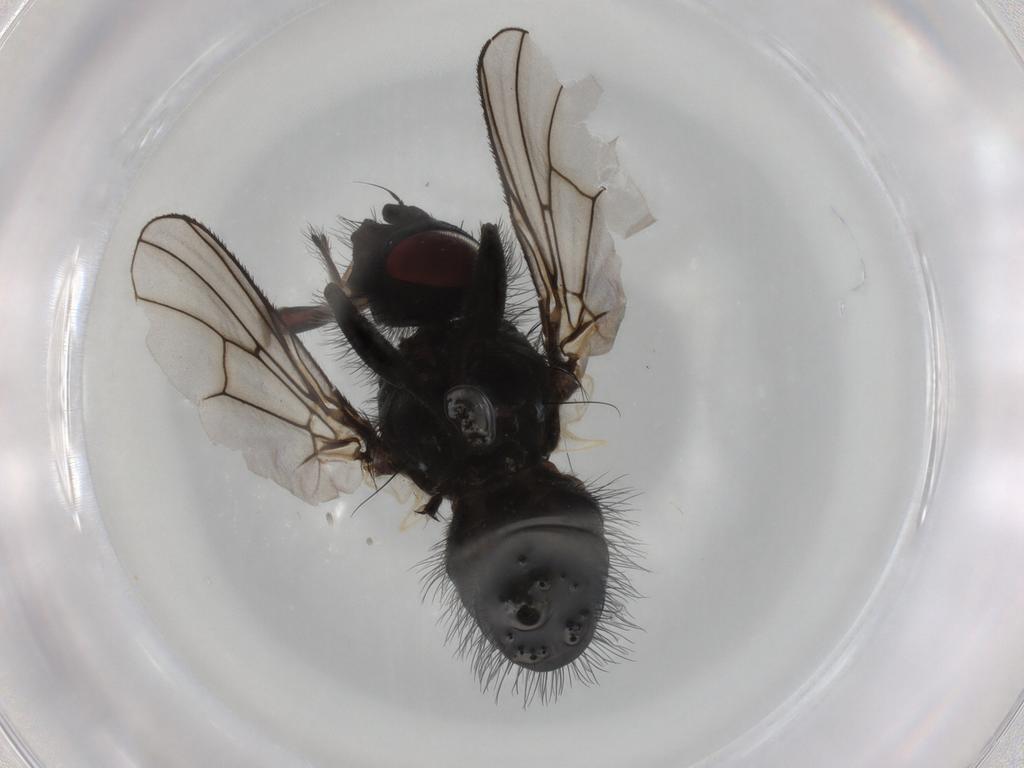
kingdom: Animalia
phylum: Arthropoda
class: Insecta
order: Diptera
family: Muscidae
